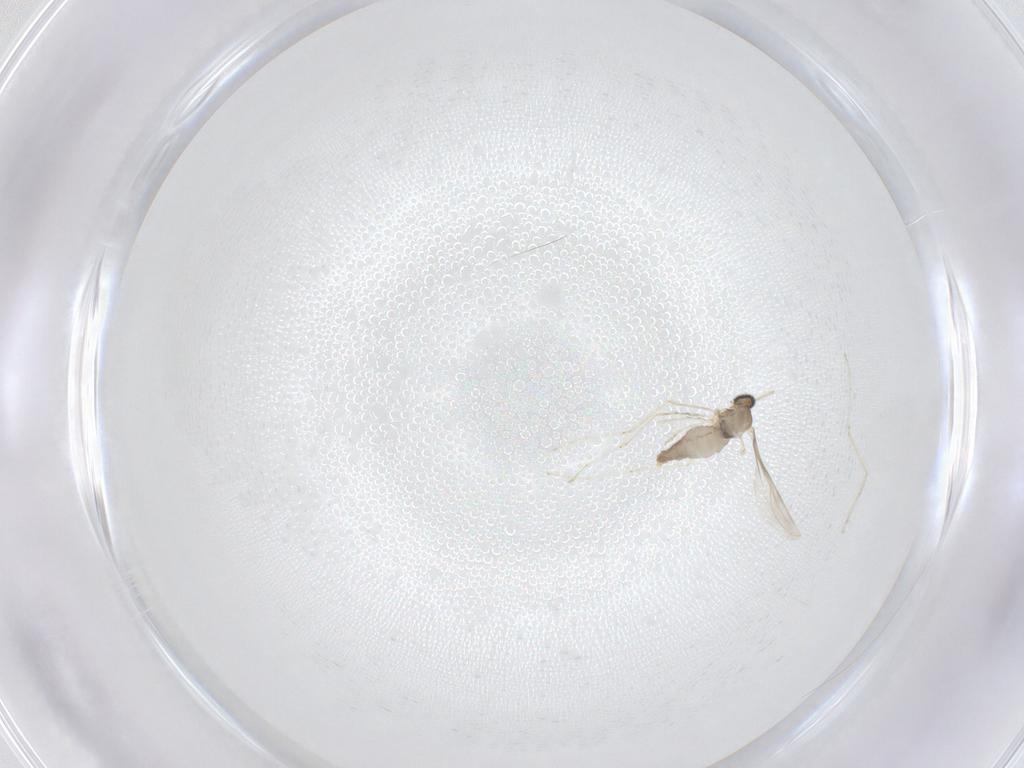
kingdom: Animalia
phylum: Arthropoda
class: Insecta
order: Diptera
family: Cecidomyiidae
